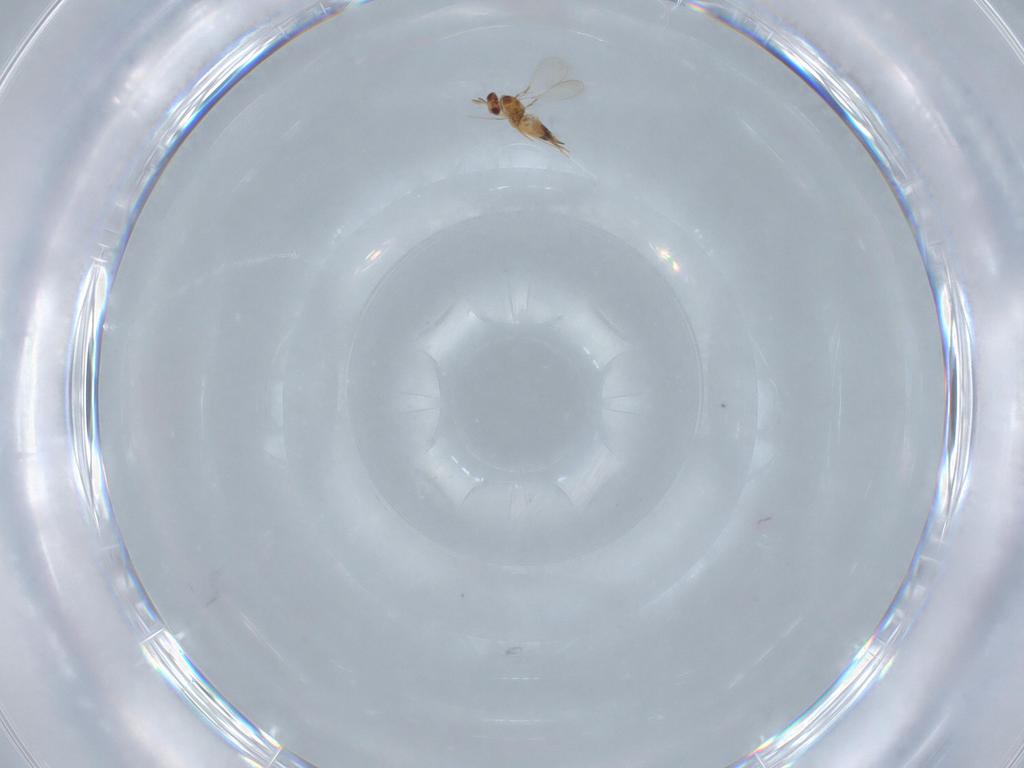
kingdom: Animalia
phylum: Arthropoda
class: Insecta
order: Hymenoptera
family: Mymaridae
